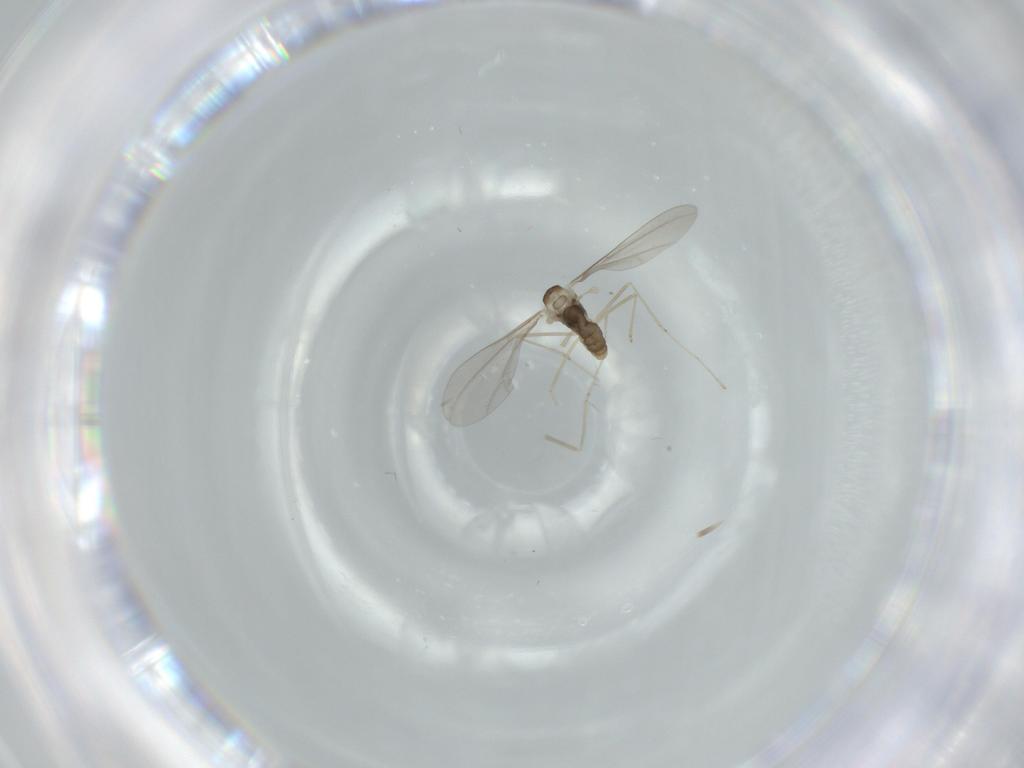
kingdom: Animalia
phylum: Arthropoda
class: Insecta
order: Diptera
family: Cecidomyiidae
